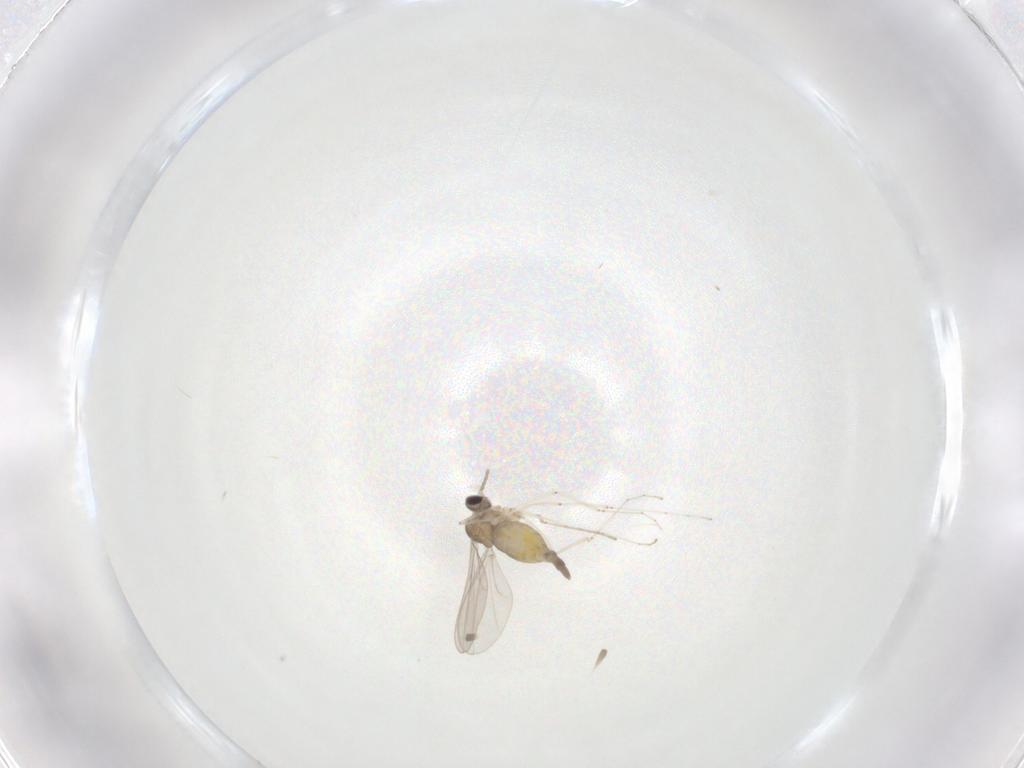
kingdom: Animalia
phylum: Arthropoda
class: Insecta
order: Diptera
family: Cecidomyiidae
